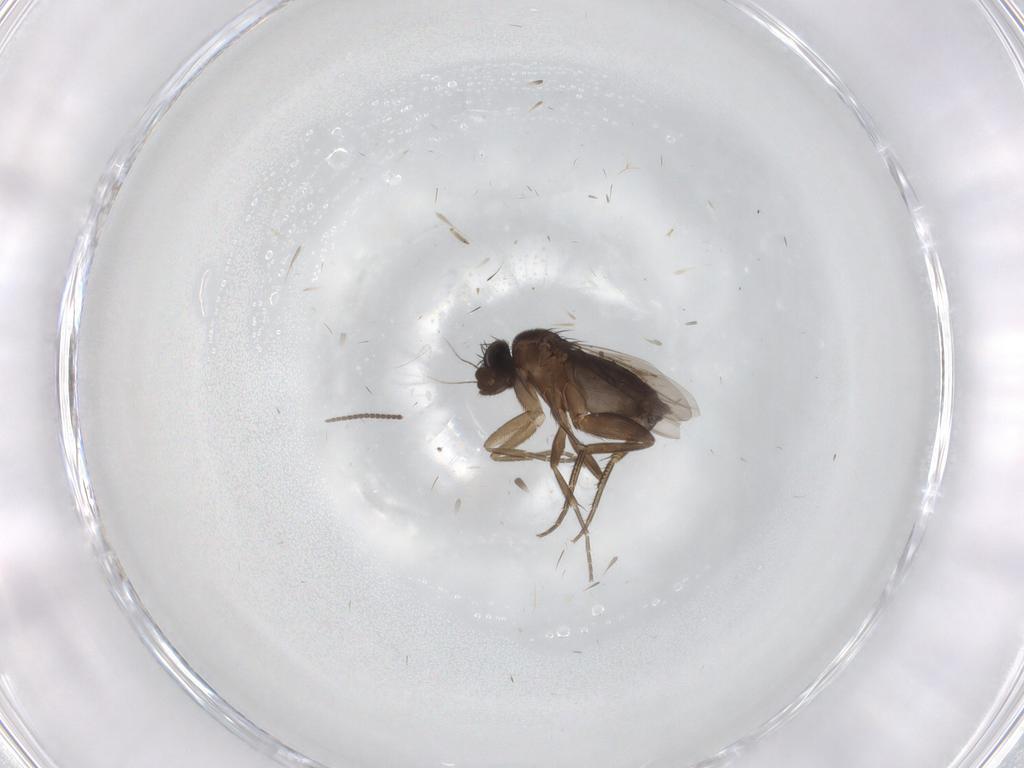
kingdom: Animalia
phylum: Arthropoda
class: Insecta
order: Diptera
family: Phoridae
